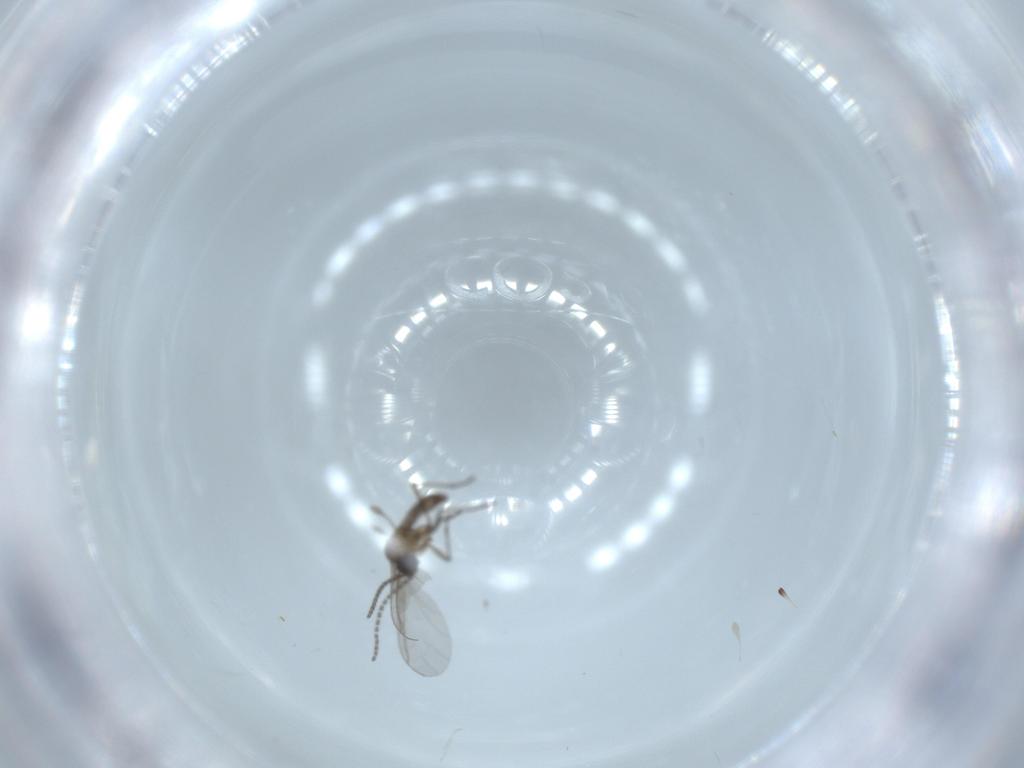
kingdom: Animalia
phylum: Arthropoda
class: Insecta
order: Diptera
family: Sciaridae
